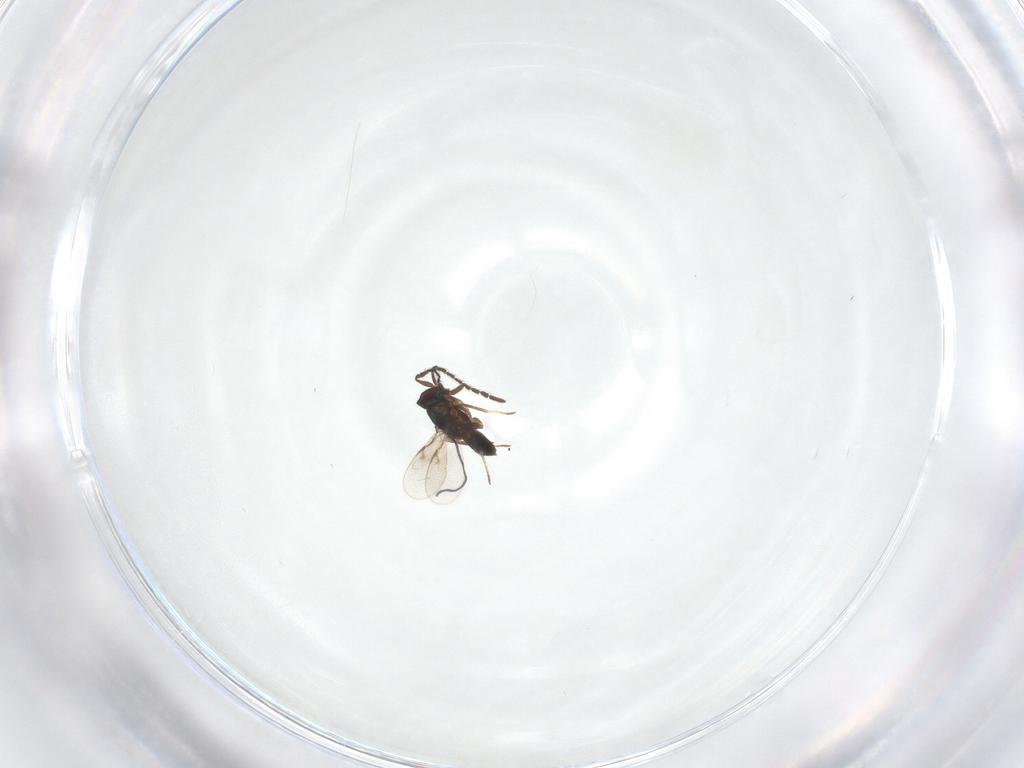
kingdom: Animalia
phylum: Arthropoda
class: Insecta
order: Hymenoptera
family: Encyrtidae
